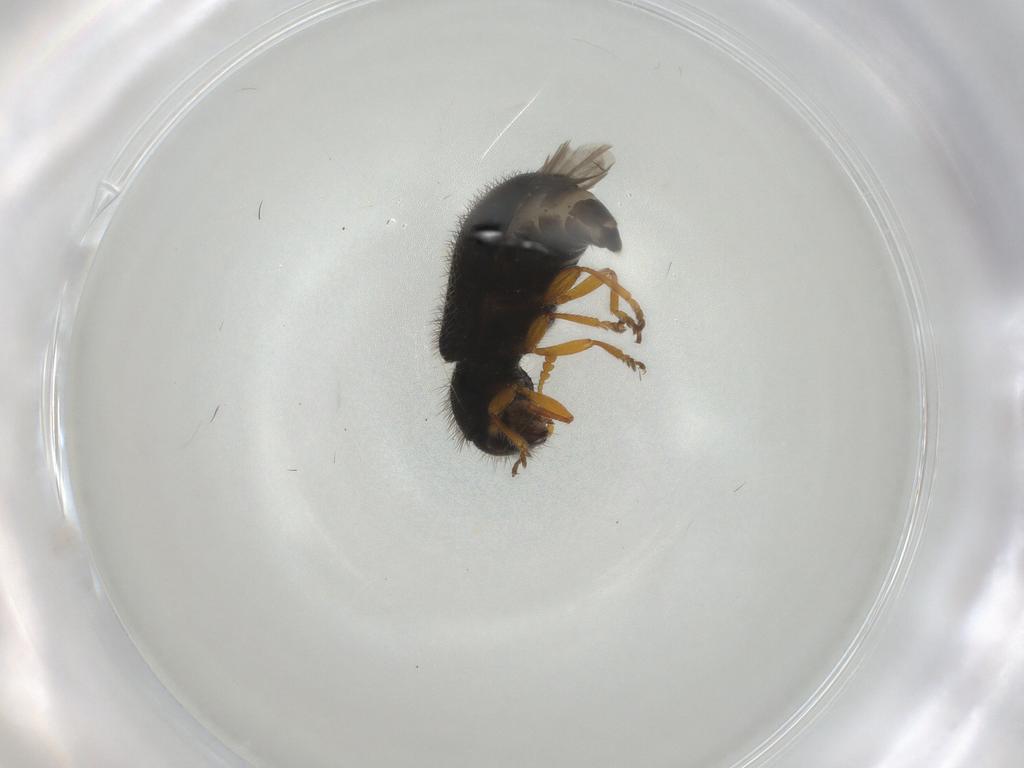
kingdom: Animalia
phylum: Arthropoda
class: Insecta
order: Coleoptera
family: Cleridae
